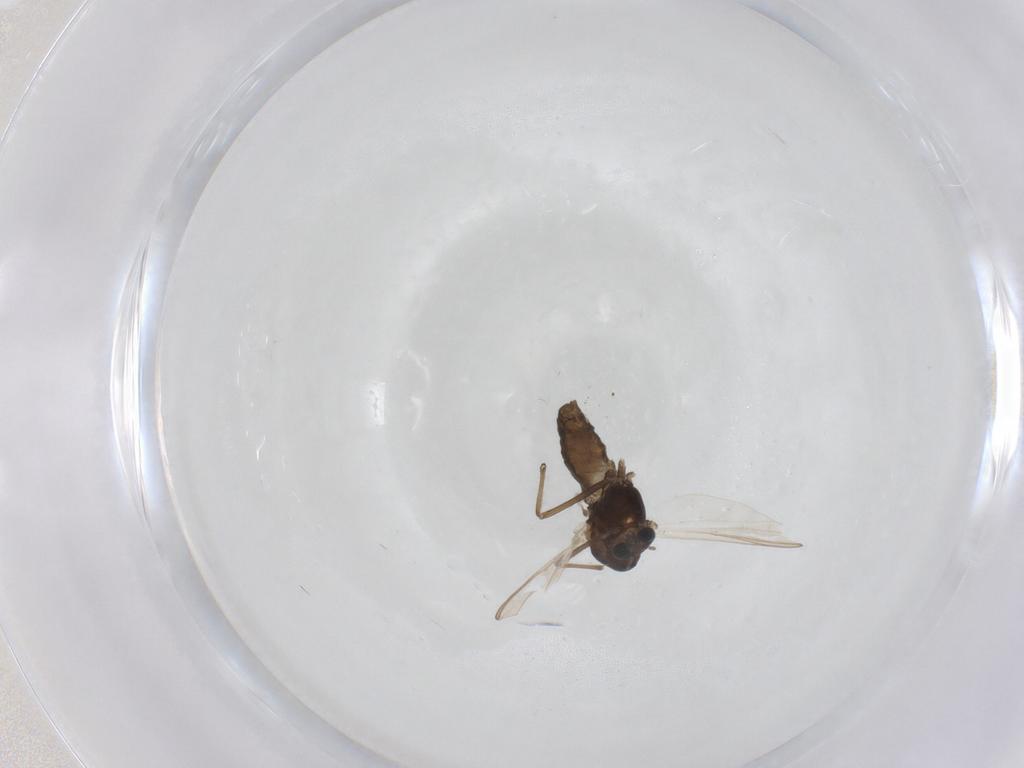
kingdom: Animalia
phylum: Arthropoda
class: Insecta
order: Diptera
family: Chironomidae
